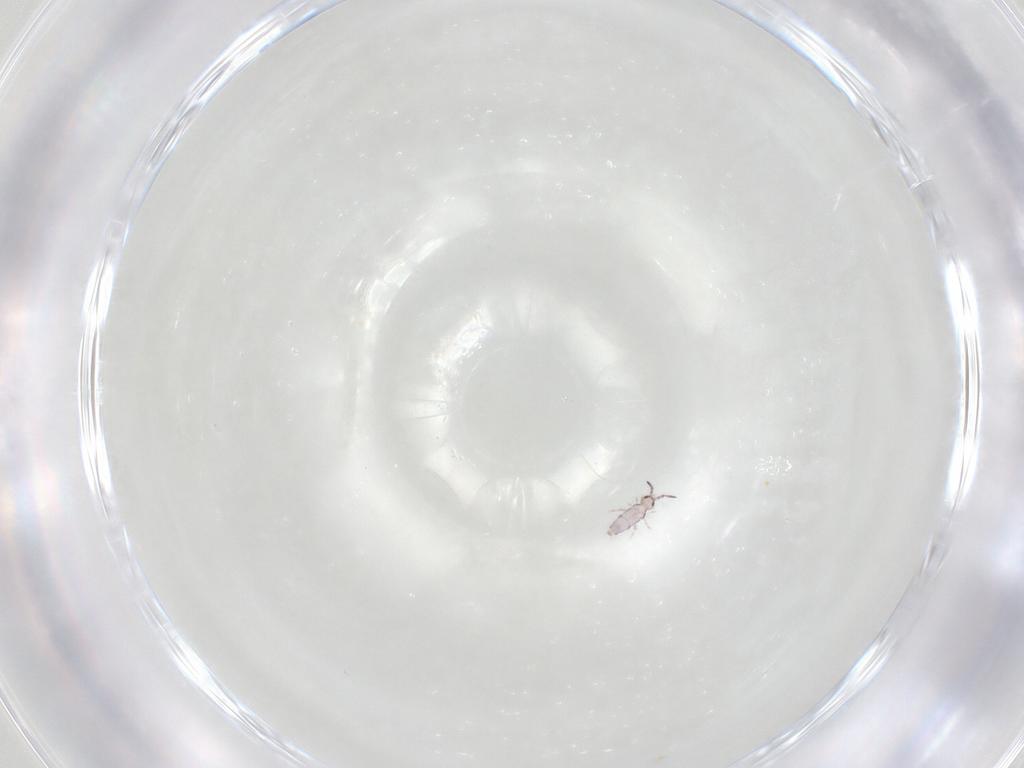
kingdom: Animalia
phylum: Arthropoda
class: Collembola
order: Entomobryomorpha
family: Entomobryidae
